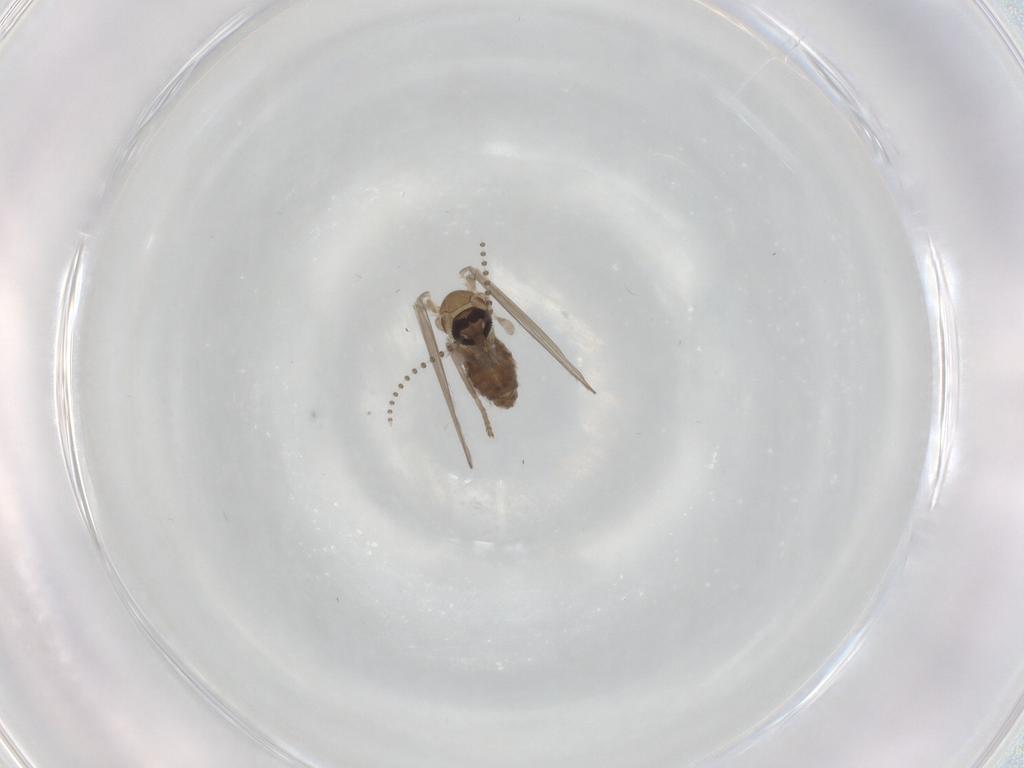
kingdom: Animalia
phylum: Arthropoda
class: Insecta
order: Diptera
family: Psychodidae
